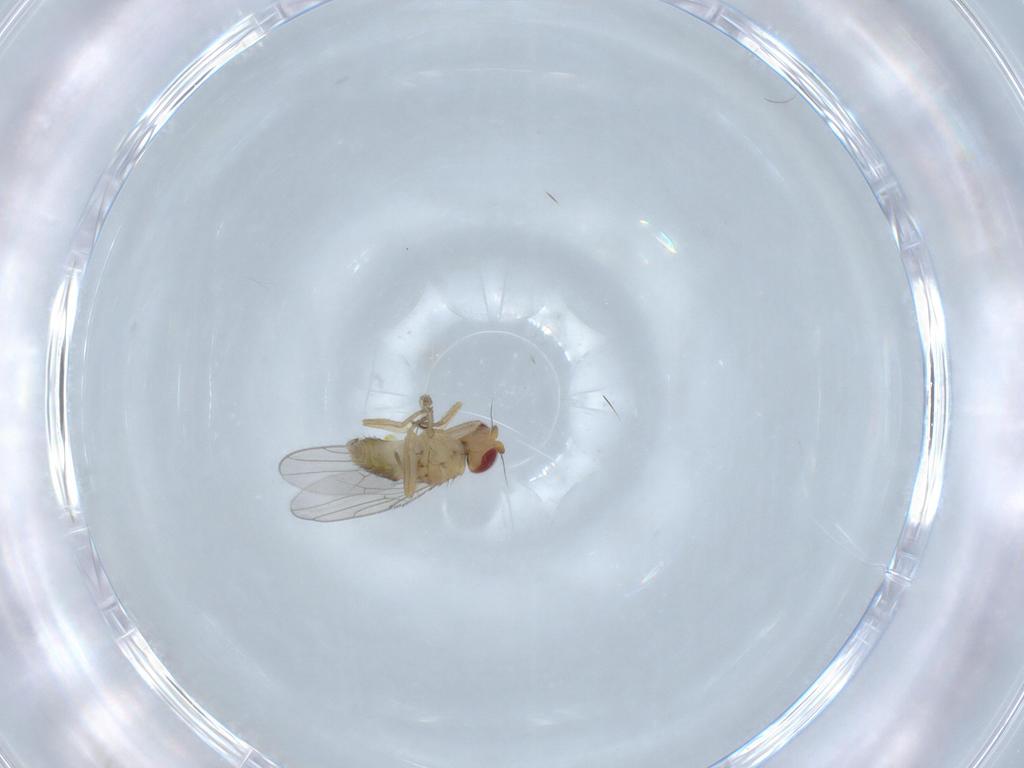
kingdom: Animalia
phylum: Arthropoda
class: Insecta
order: Diptera
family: Chloropidae
